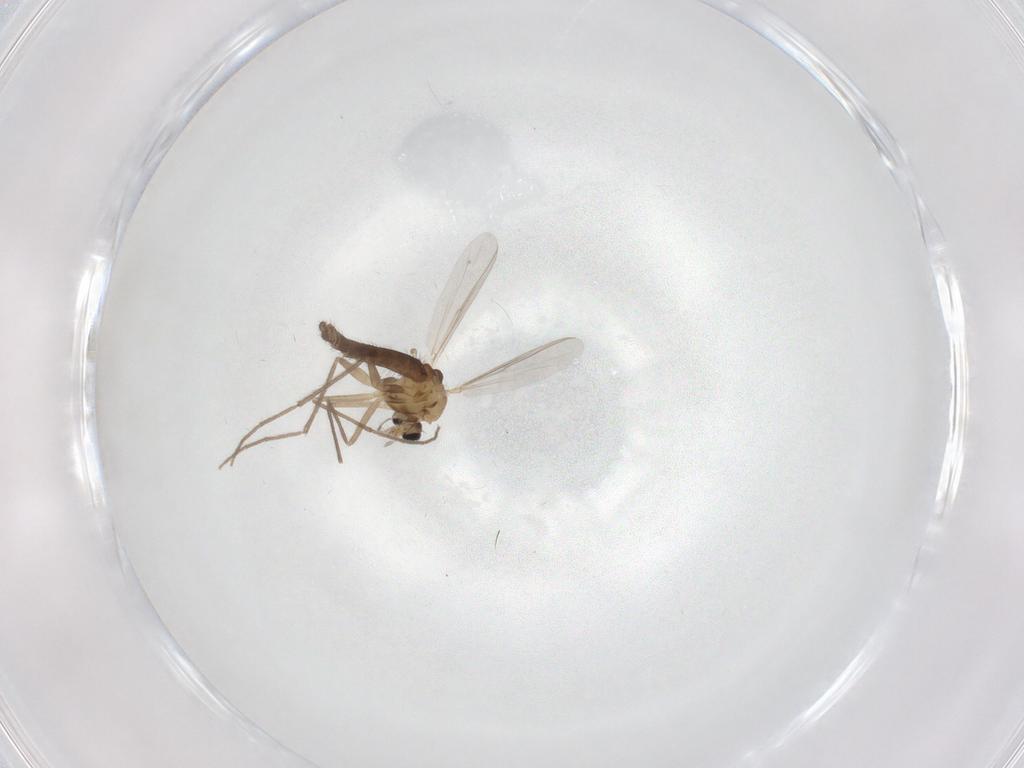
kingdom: Animalia
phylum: Arthropoda
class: Insecta
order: Diptera
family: Chironomidae
